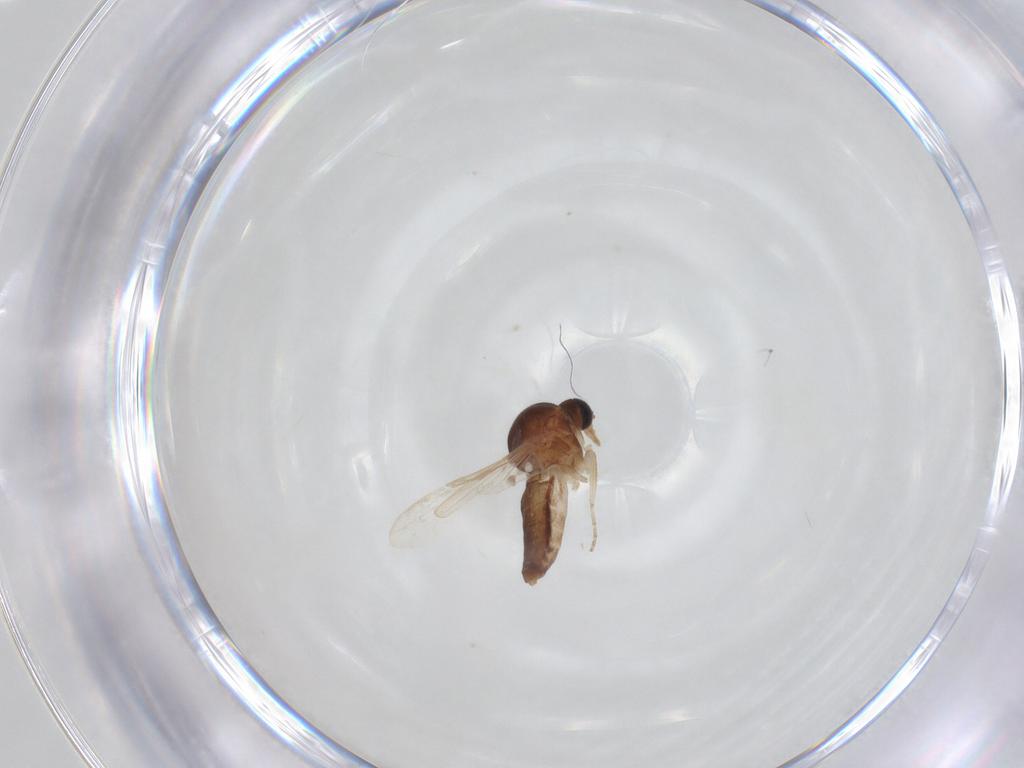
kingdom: Animalia
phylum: Arthropoda
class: Insecta
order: Diptera
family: Ceratopogonidae
